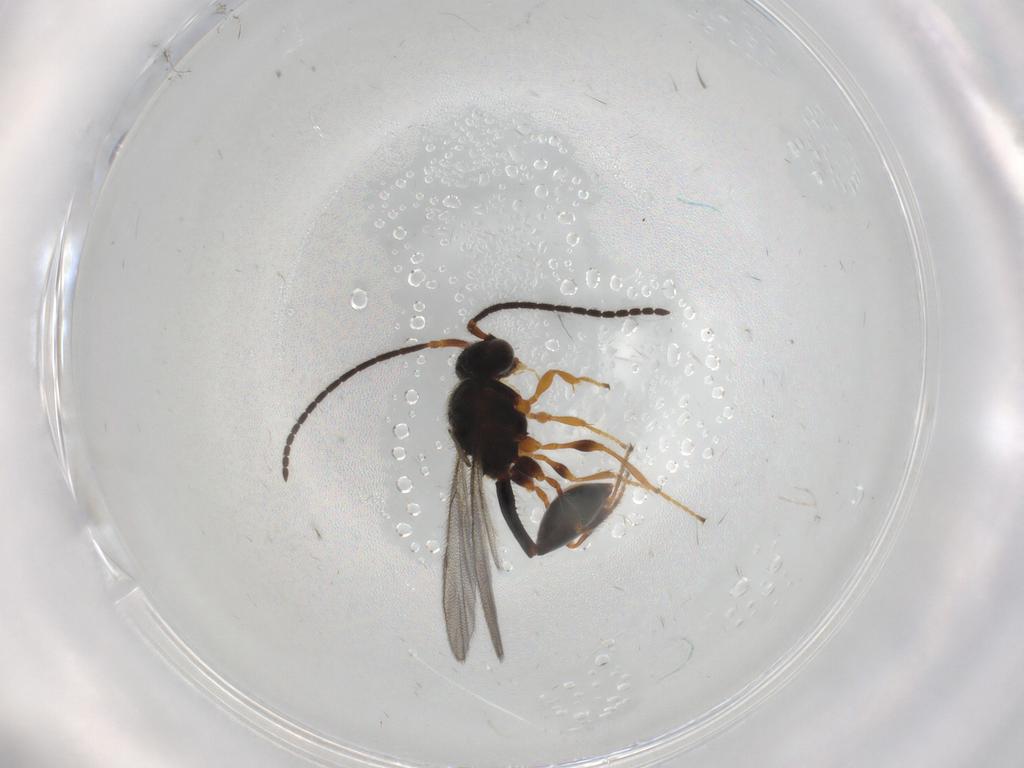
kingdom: Animalia
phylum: Arthropoda
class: Insecta
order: Hymenoptera
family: Diapriidae
